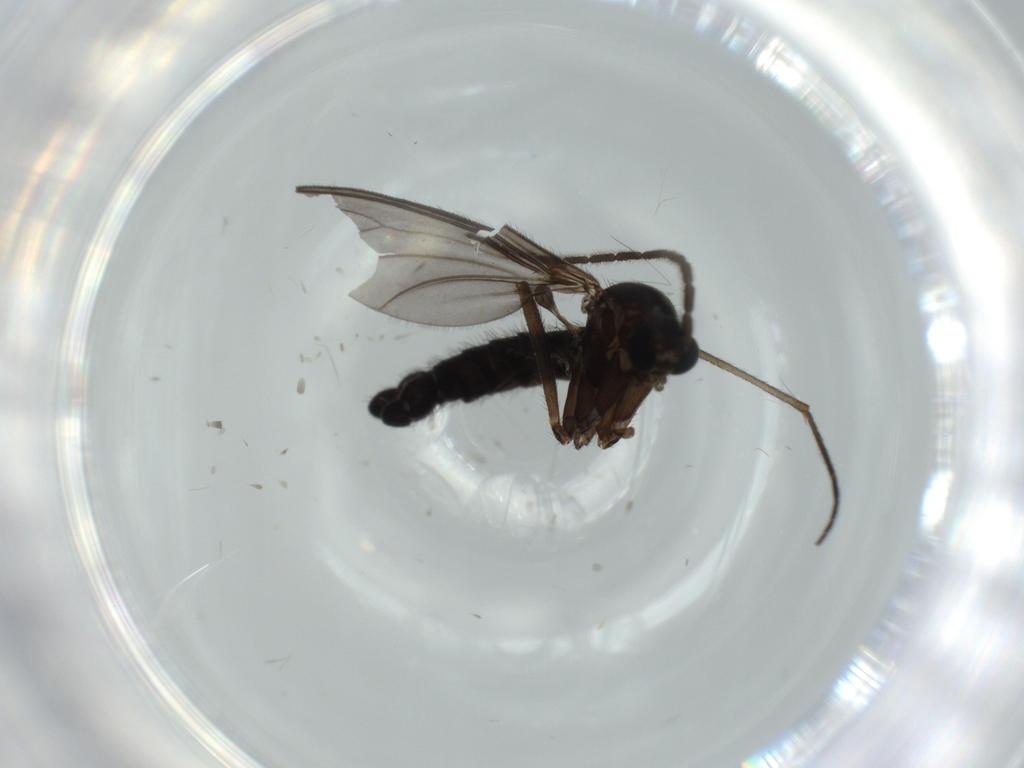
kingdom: Animalia
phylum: Arthropoda
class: Insecta
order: Diptera
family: Sciaridae
